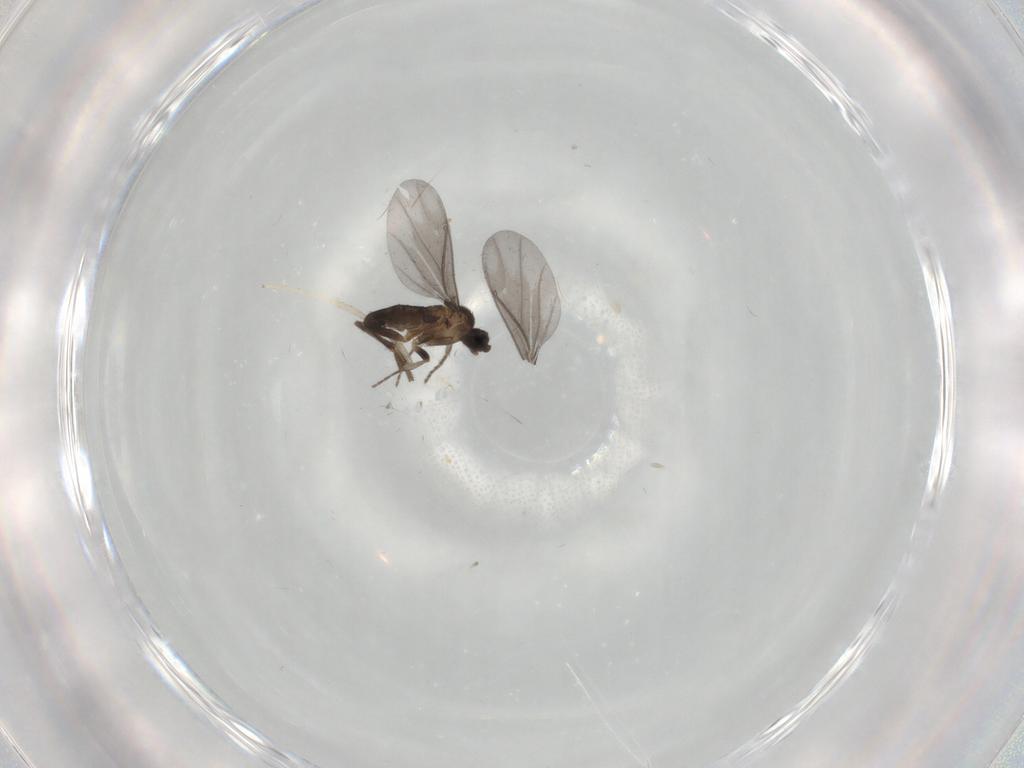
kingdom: Animalia
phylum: Arthropoda
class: Insecta
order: Diptera
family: Phoridae
